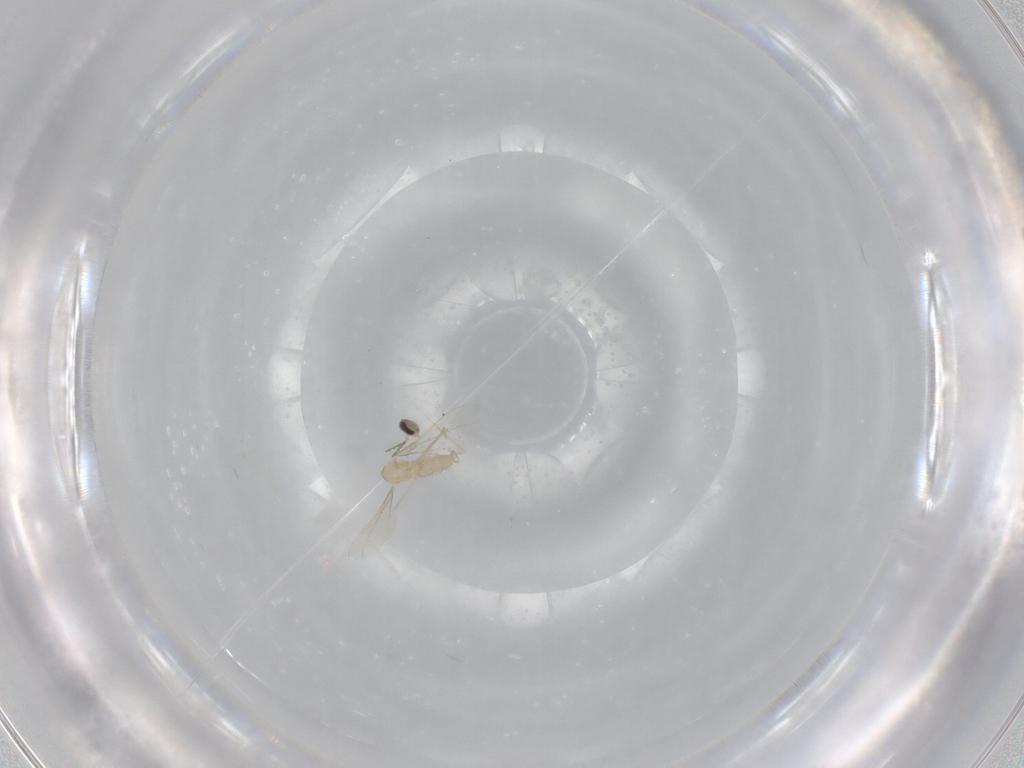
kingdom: Animalia
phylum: Arthropoda
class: Insecta
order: Diptera
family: Cecidomyiidae
